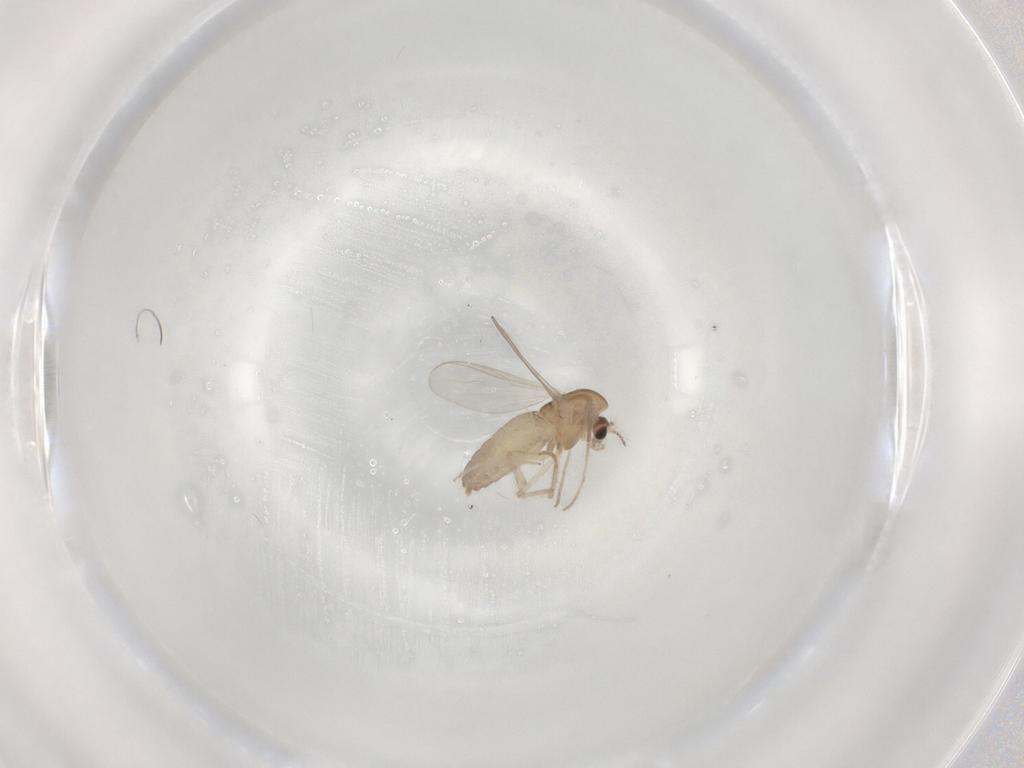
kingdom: Animalia
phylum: Arthropoda
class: Insecta
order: Diptera
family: Chironomidae
